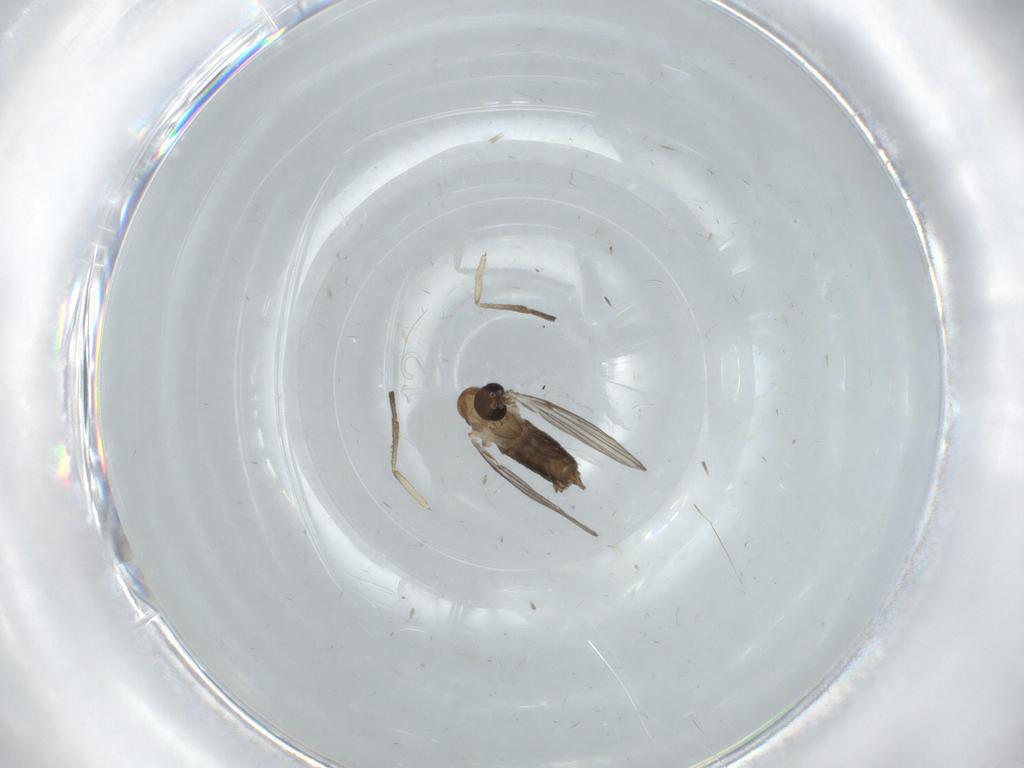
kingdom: Animalia
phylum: Arthropoda
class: Insecta
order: Diptera
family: Psychodidae
